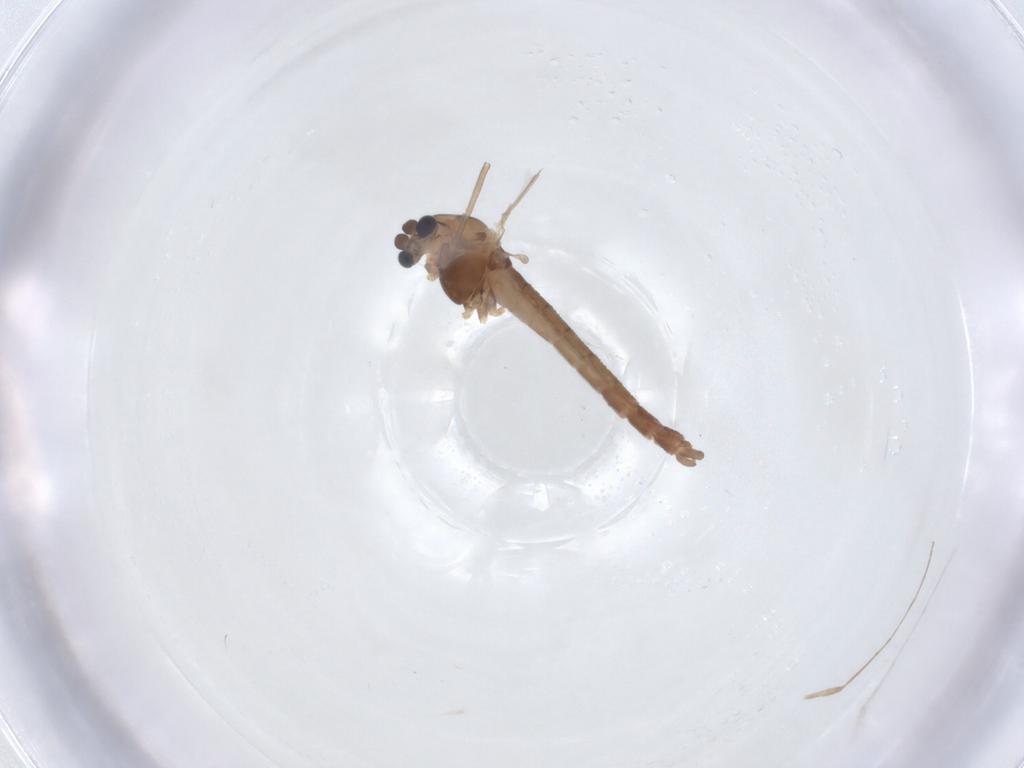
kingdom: Animalia
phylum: Arthropoda
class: Insecta
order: Diptera
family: Chironomidae
